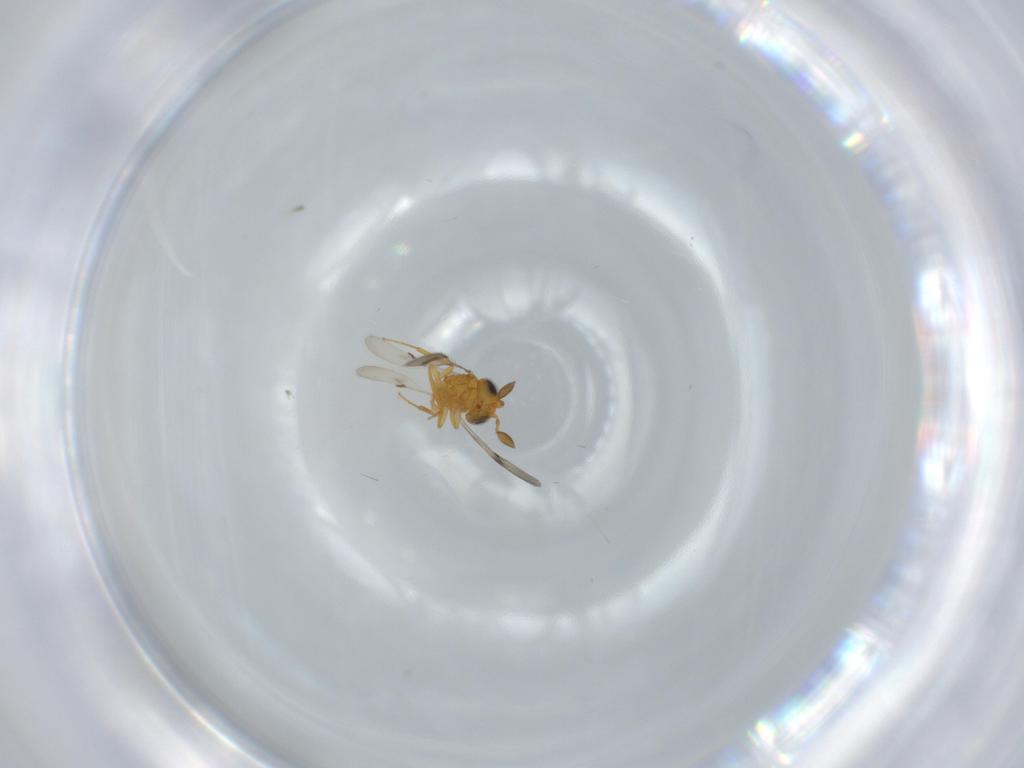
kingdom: Animalia
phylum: Arthropoda
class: Insecta
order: Hymenoptera
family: Scelionidae
